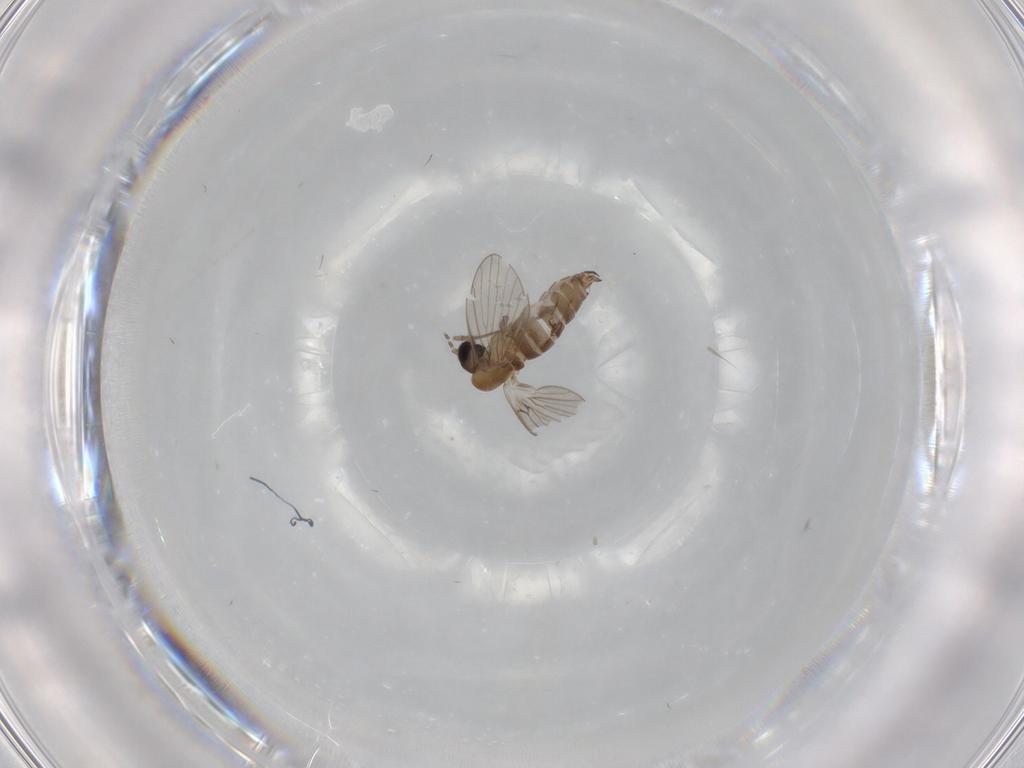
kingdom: Animalia
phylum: Arthropoda
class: Insecta
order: Diptera
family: Psychodidae
